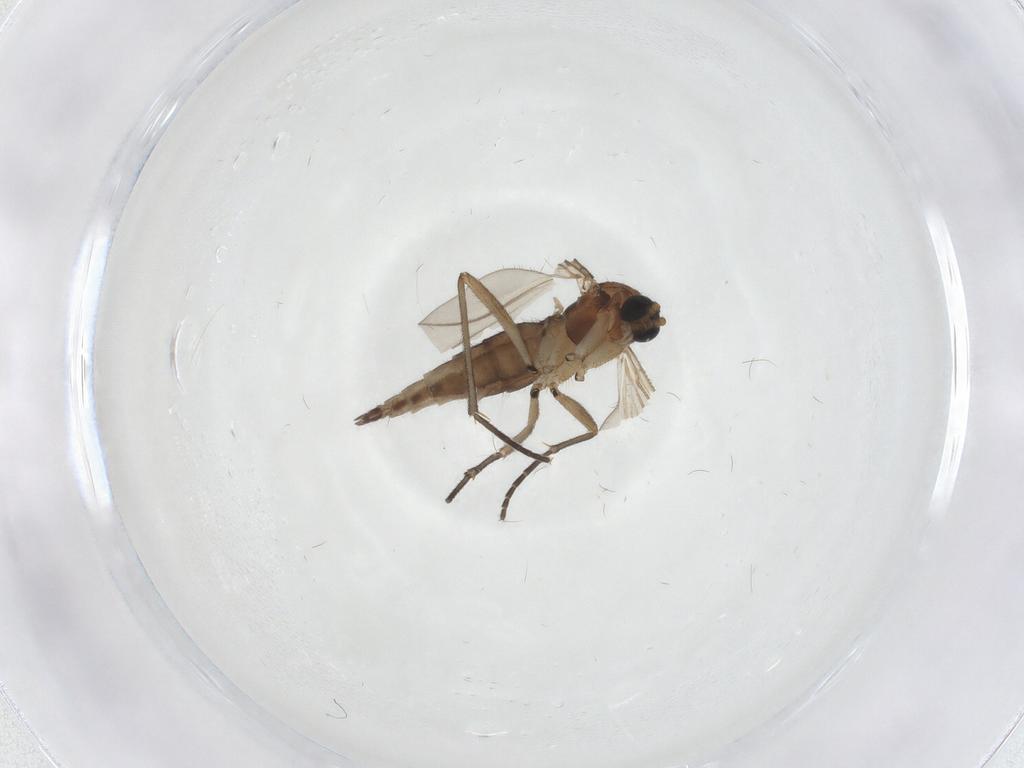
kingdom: Animalia
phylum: Arthropoda
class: Insecta
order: Diptera
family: Sciaridae
